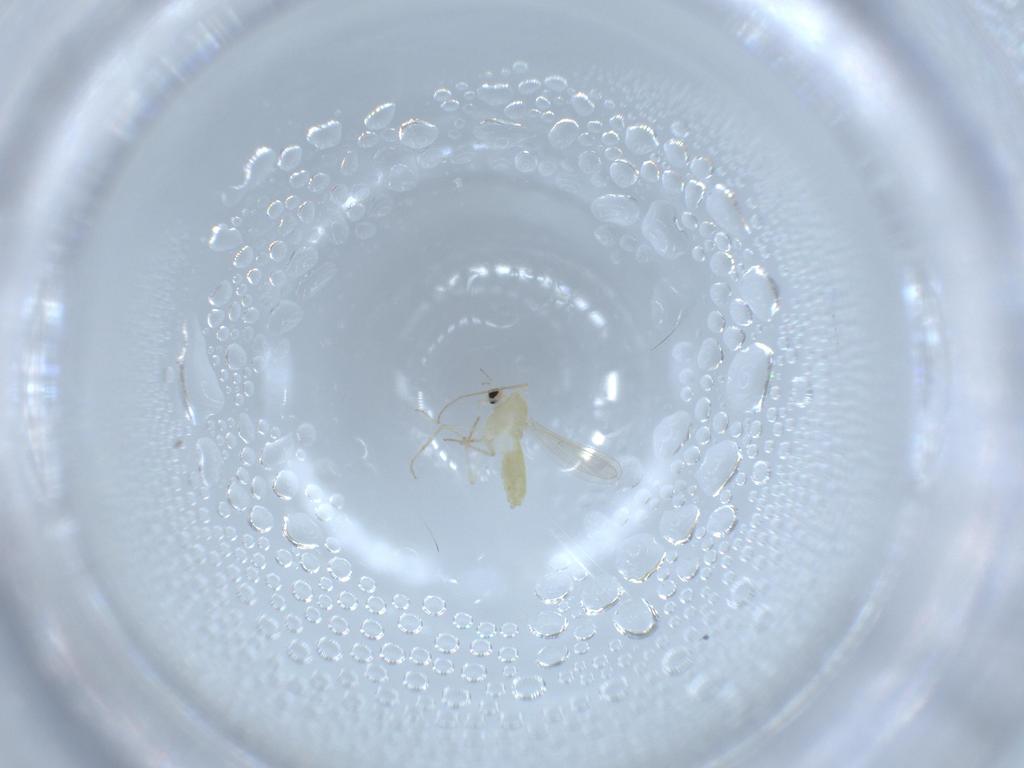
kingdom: Animalia
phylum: Arthropoda
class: Insecta
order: Diptera
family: Chironomidae
